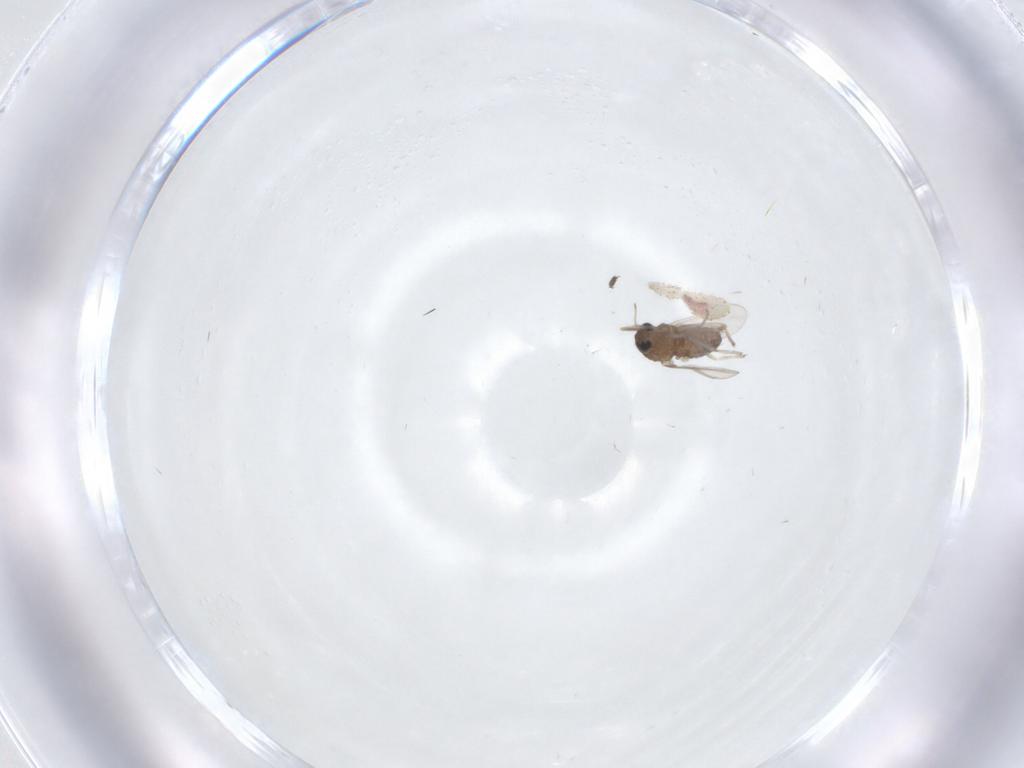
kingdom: Animalia
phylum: Arthropoda
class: Insecta
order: Diptera
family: Chironomidae
